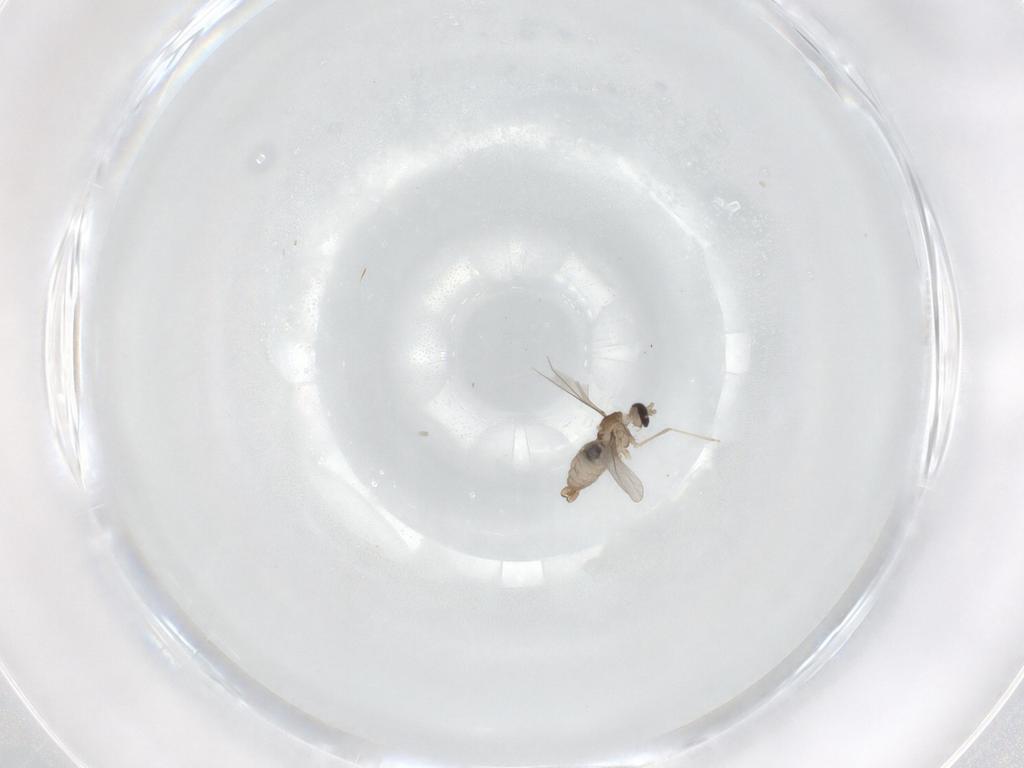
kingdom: Animalia
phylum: Arthropoda
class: Insecta
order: Diptera
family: Cecidomyiidae
